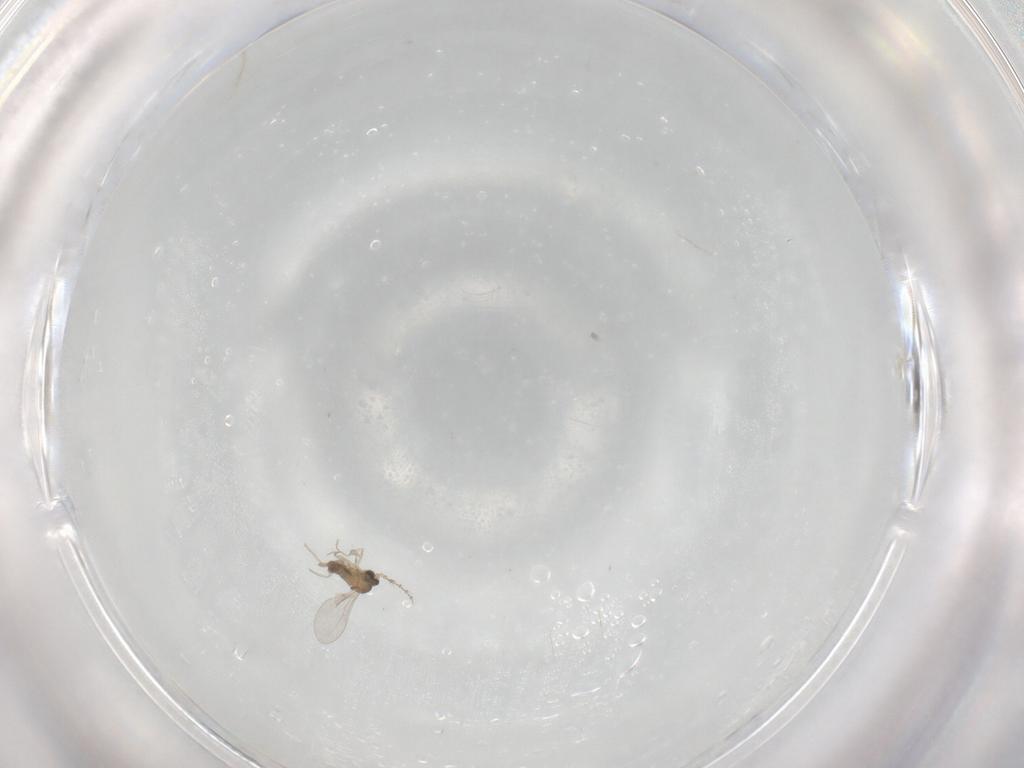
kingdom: Animalia
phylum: Arthropoda
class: Insecta
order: Diptera
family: Cecidomyiidae
